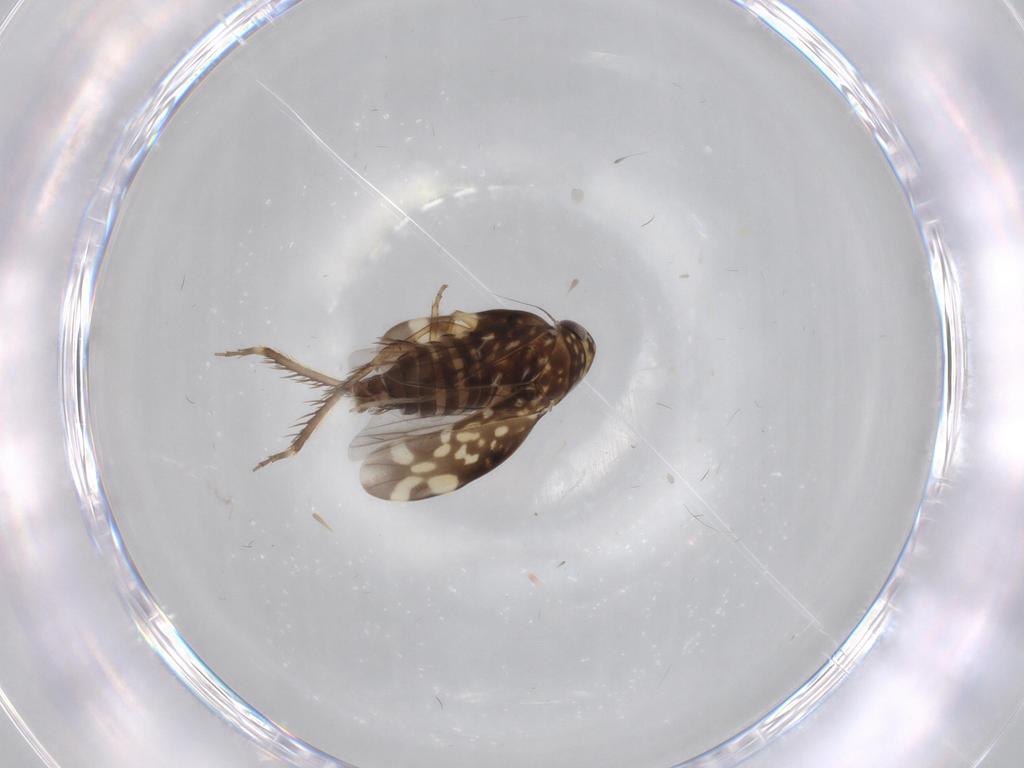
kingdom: Animalia
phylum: Arthropoda
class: Insecta
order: Hemiptera
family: Cicadellidae
